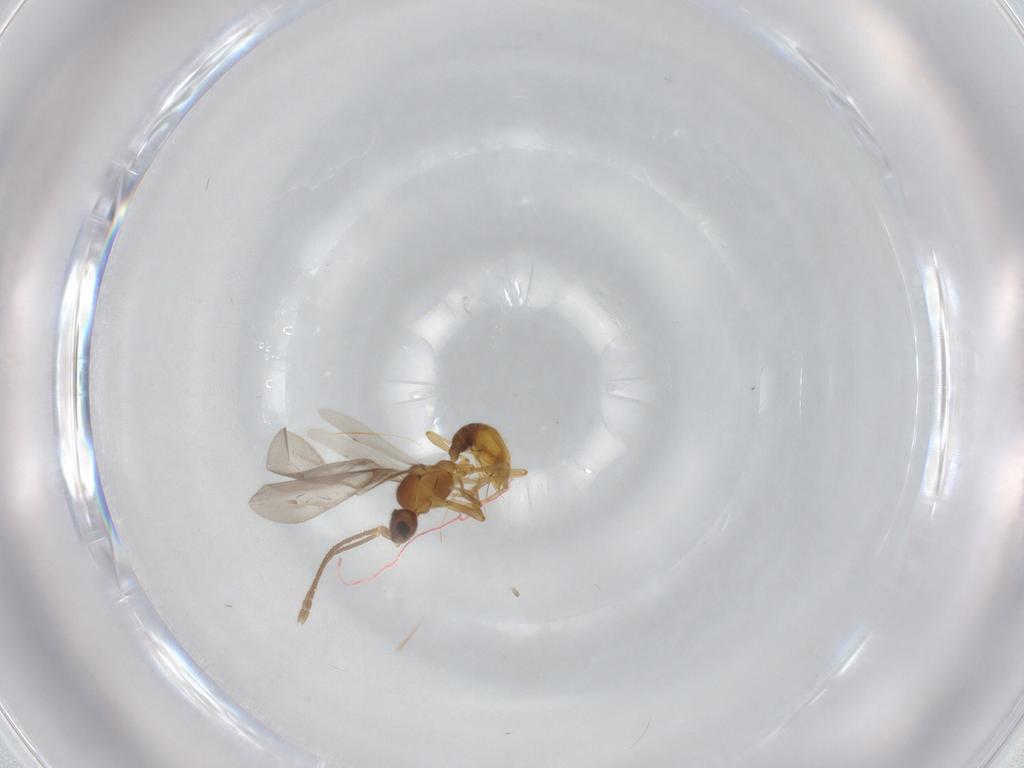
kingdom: Animalia
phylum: Arthropoda
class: Insecta
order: Hymenoptera
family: Formicidae
